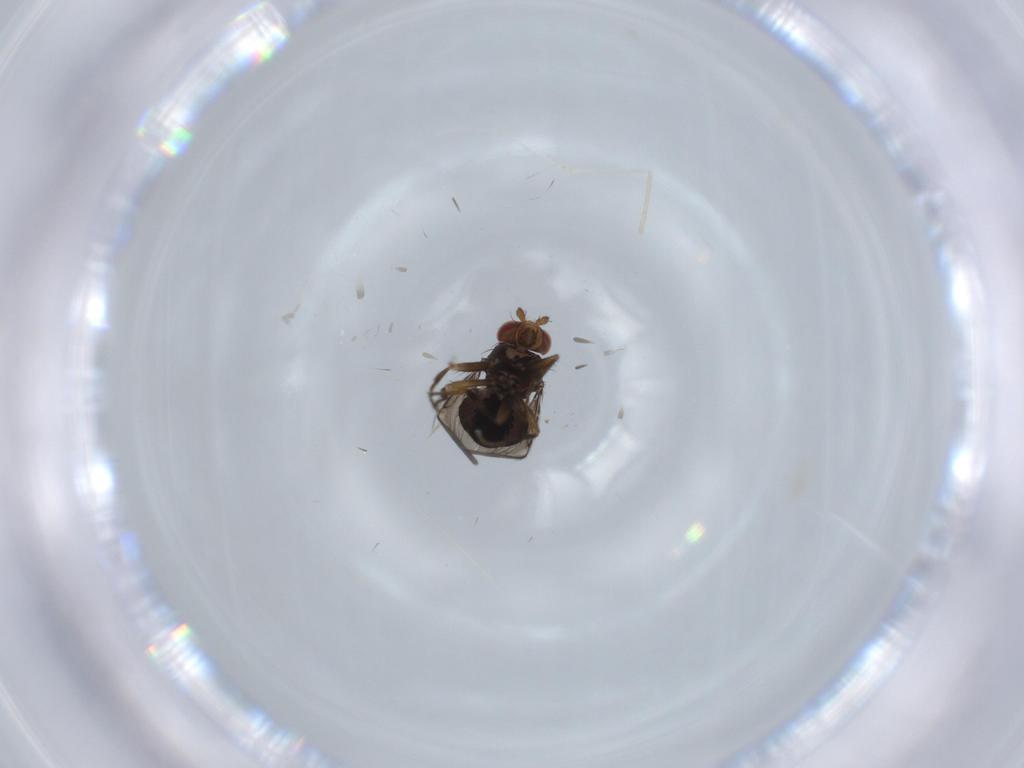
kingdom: Animalia
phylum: Arthropoda
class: Insecta
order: Diptera
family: Sphaeroceridae
